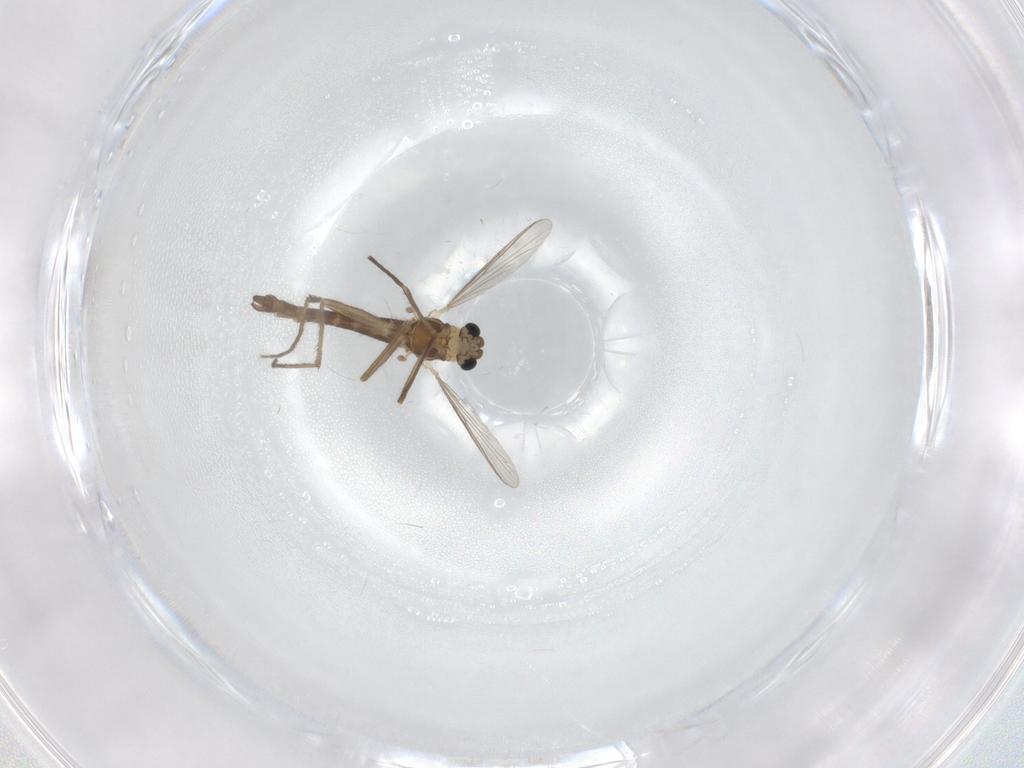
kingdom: Animalia
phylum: Arthropoda
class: Insecta
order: Diptera
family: Chironomidae
